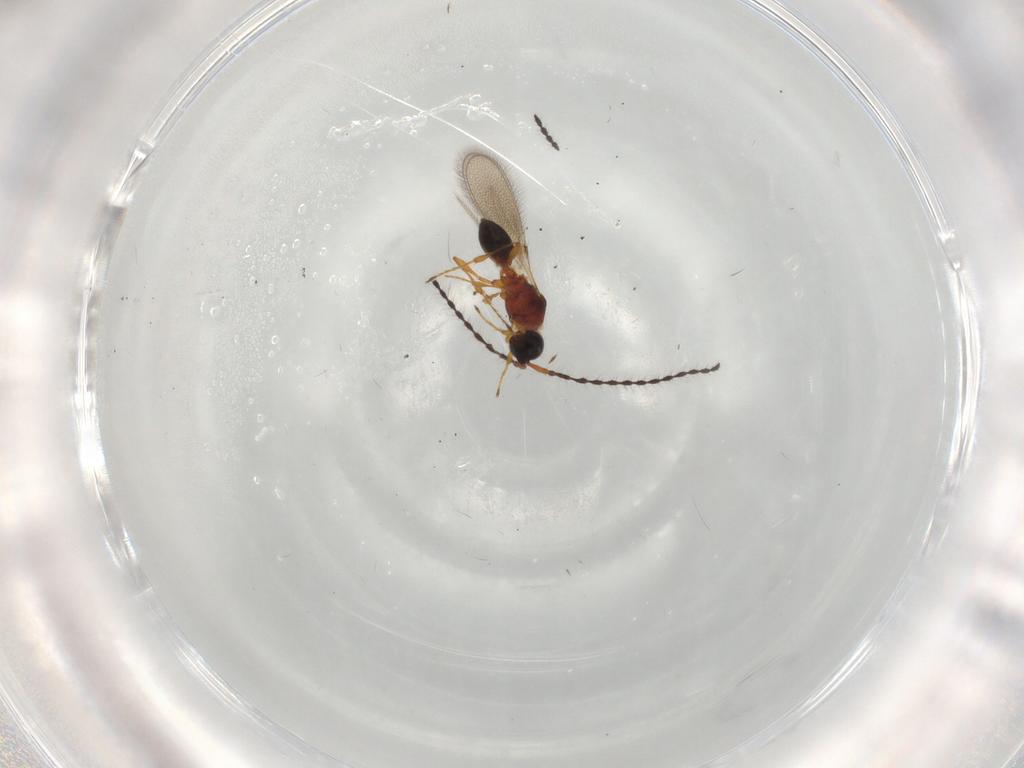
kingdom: Animalia
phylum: Arthropoda
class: Insecta
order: Hymenoptera
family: Diapriidae
